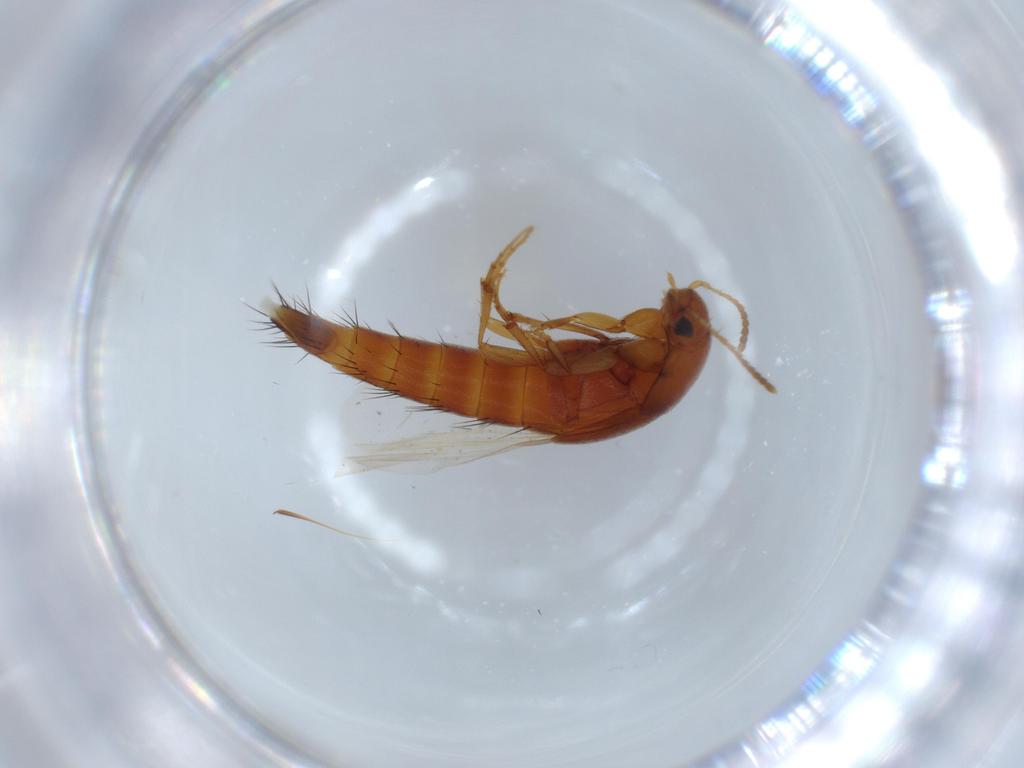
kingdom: Animalia
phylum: Arthropoda
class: Insecta
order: Coleoptera
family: Staphylinidae
